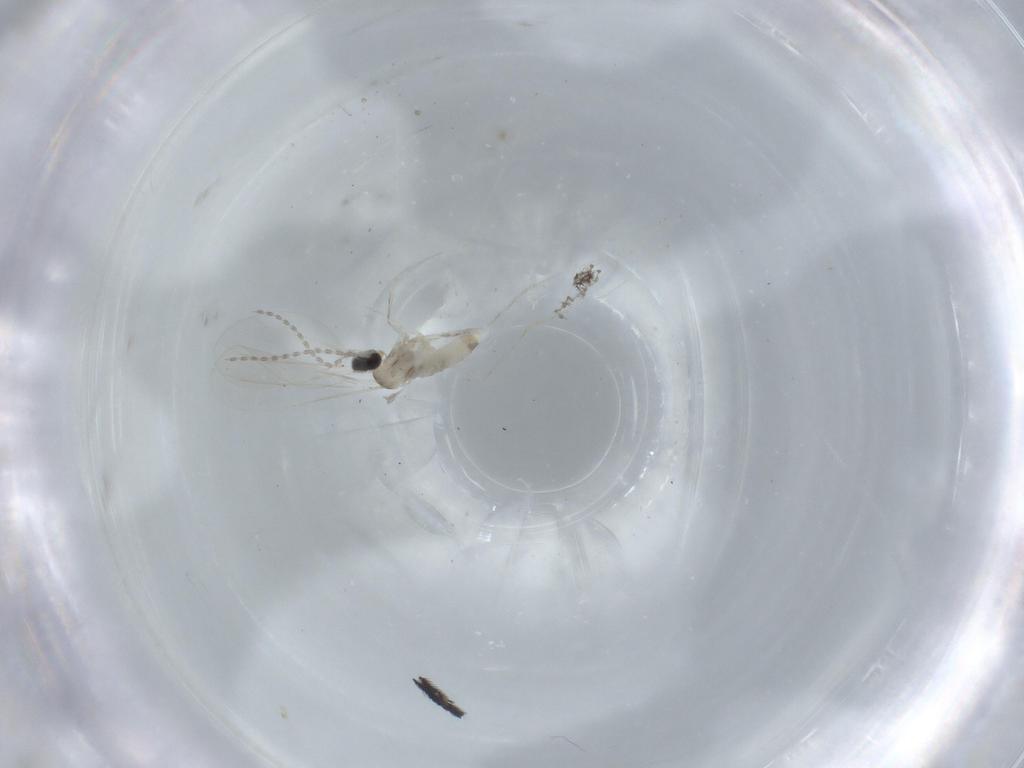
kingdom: Animalia
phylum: Arthropoda
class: Insecta
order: Diptera
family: Cecidomyiidae
